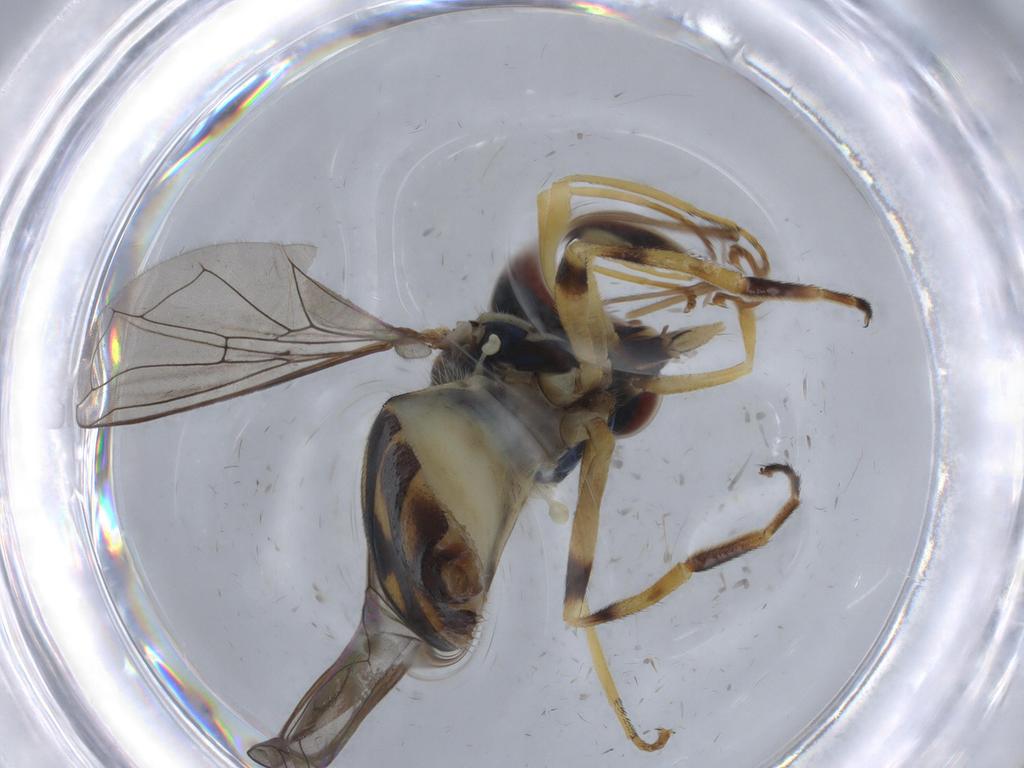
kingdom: Animalia
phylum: Arthropoda
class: Insecta
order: Diptera
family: Syrphidae
